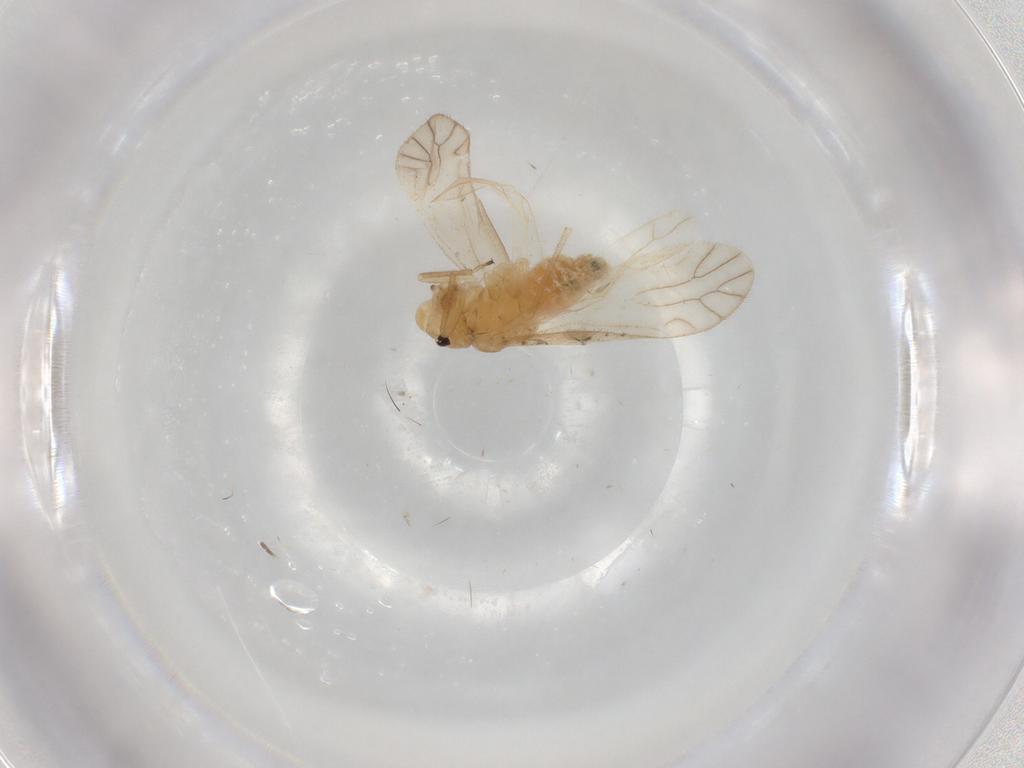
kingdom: Animalia
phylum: Arthropoda
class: Insecta
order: Psocodea
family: Caeciliusidae
